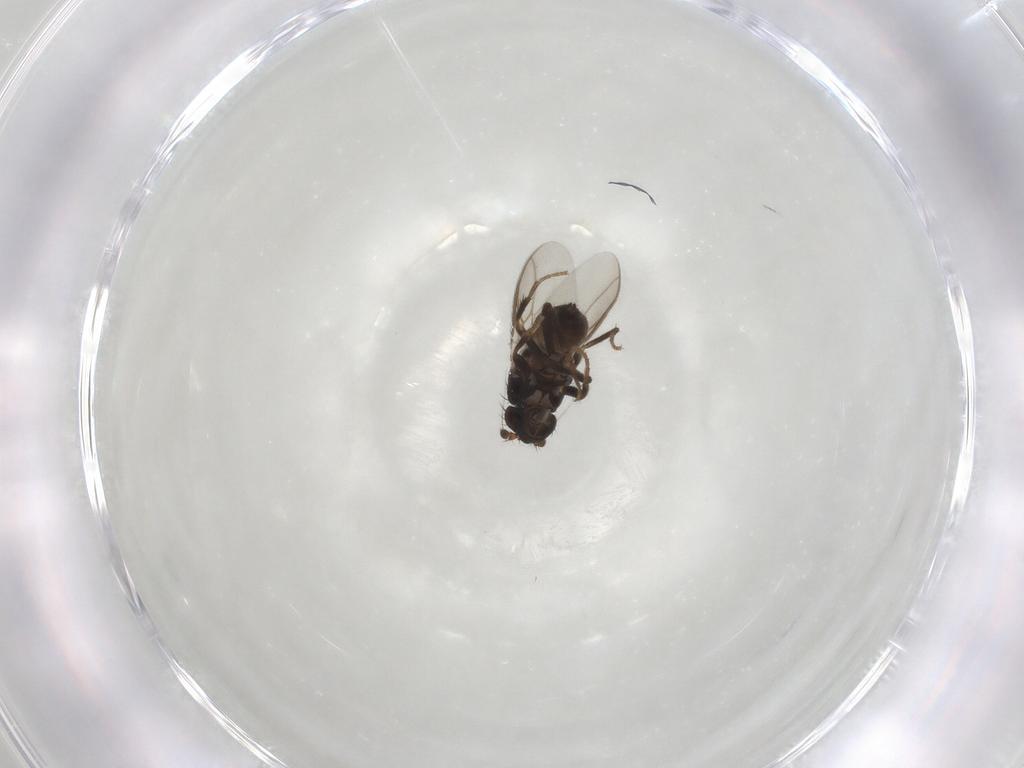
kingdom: Animalia
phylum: Arthropoda
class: Insecta
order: Diptera
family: Sphaeroceridae
